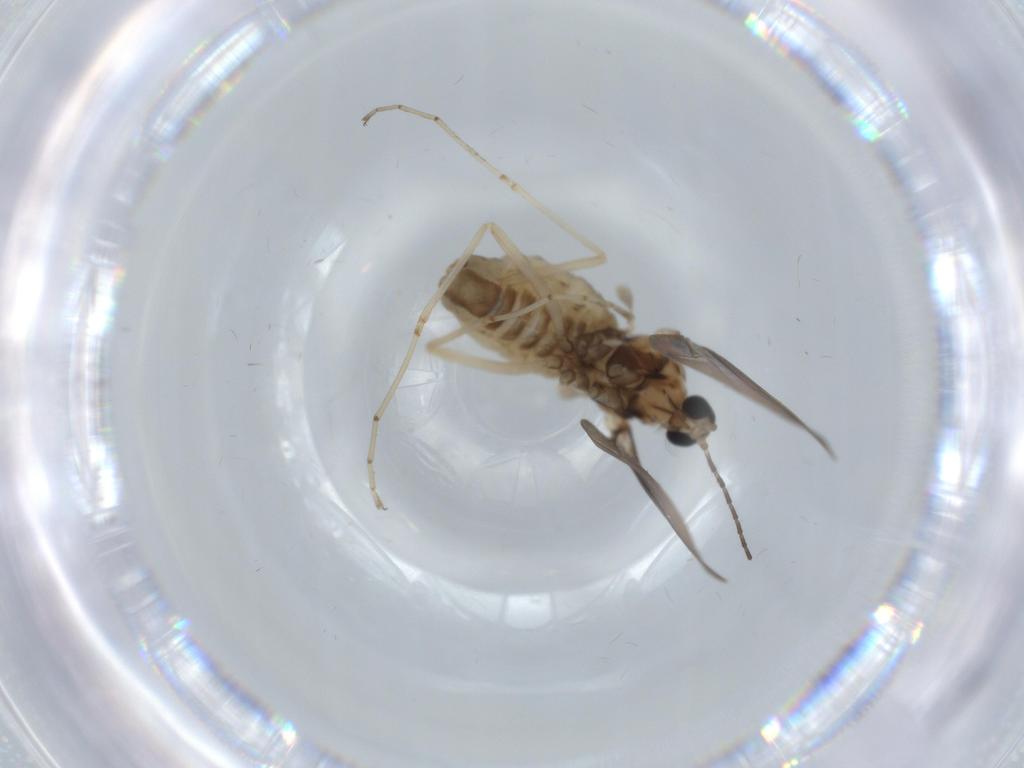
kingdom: Animalia
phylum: Arthropoda
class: Insecta
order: Diptera
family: Cecidomyiidae
